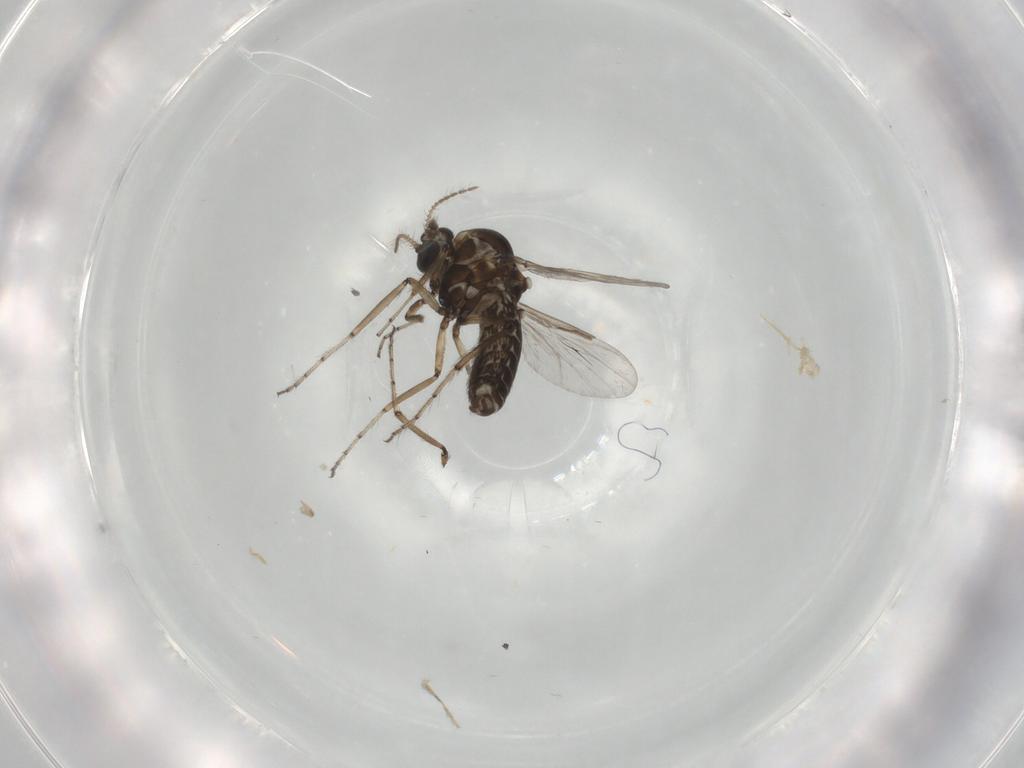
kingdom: Animalia
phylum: Arthropoda
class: Insecta
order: Diptera
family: Ceratopogonidae
